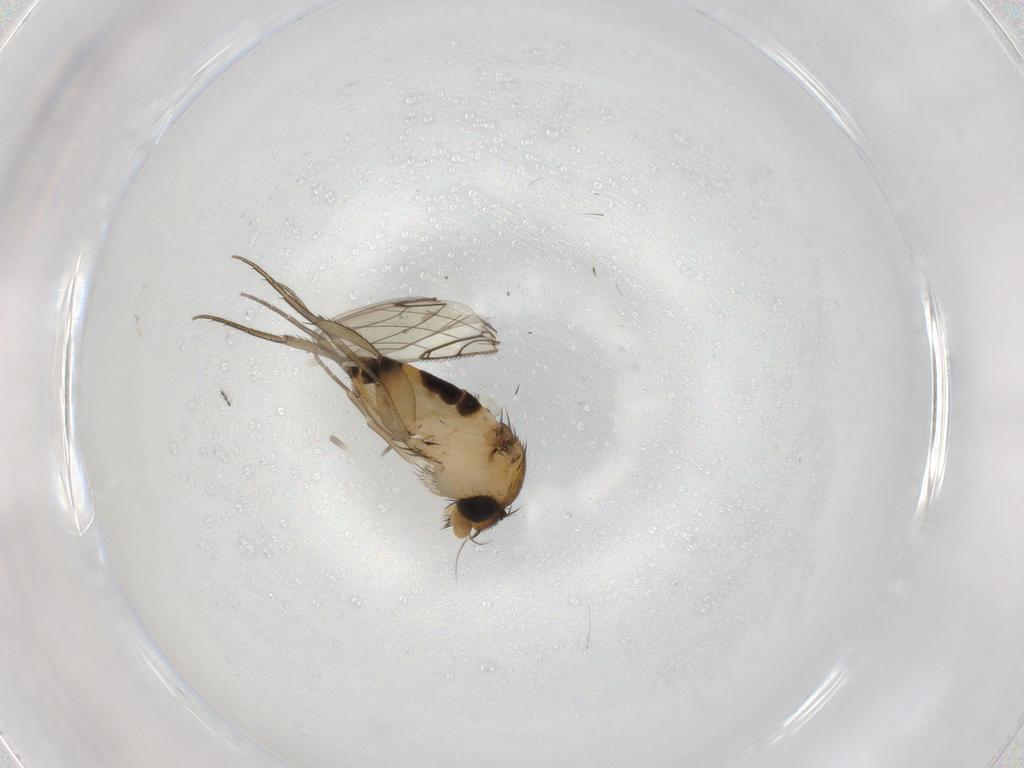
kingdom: Animalia
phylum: Arthropoda
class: Insecta
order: Diptera
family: Phoridae
